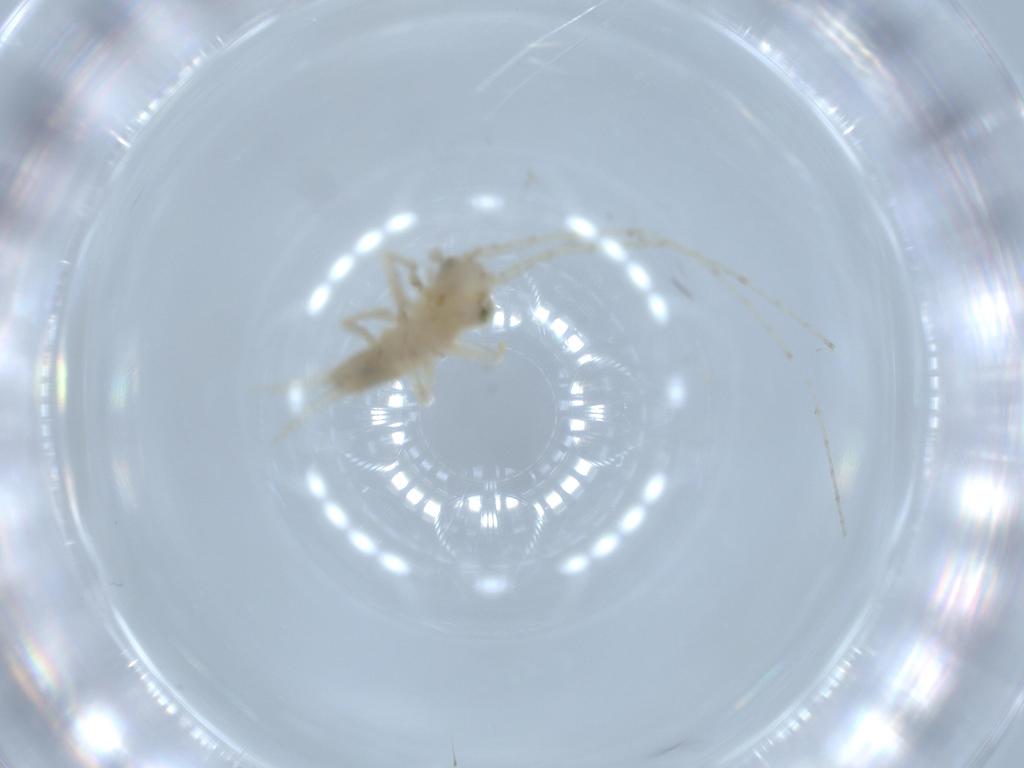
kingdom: Animalia
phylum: Arthropoda
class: Insecta
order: Orthoptera
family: Trigonidiidae
